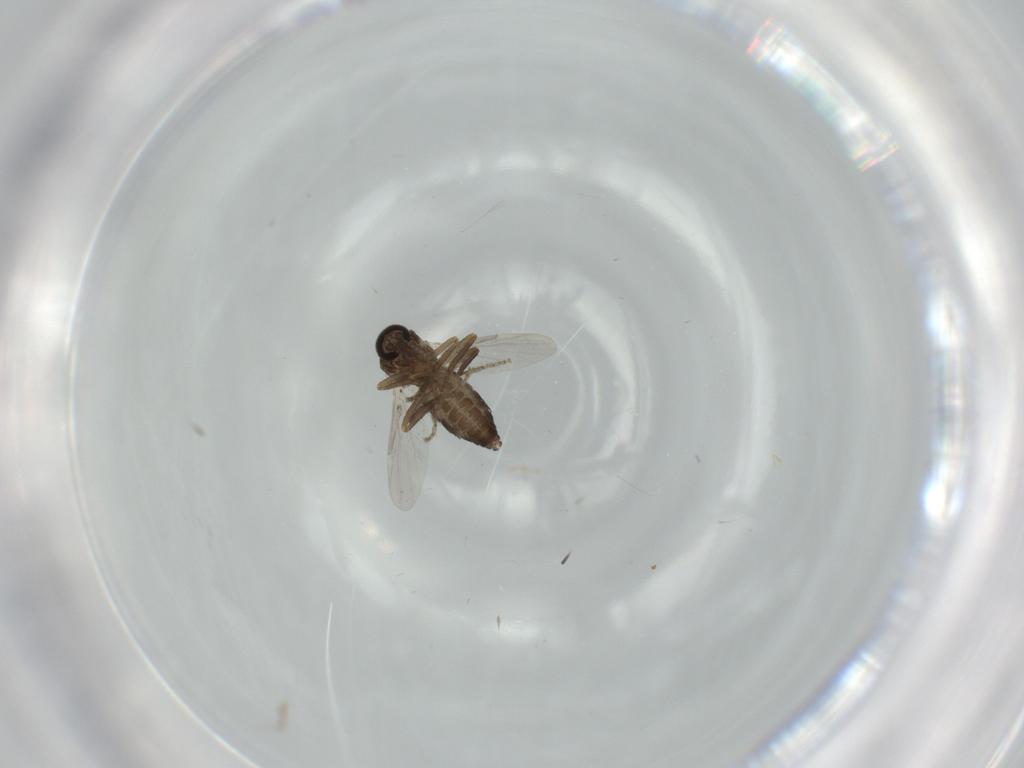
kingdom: Animalia
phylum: Arthropoda
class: Insecta
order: Diptera
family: Ceratopogonidae
